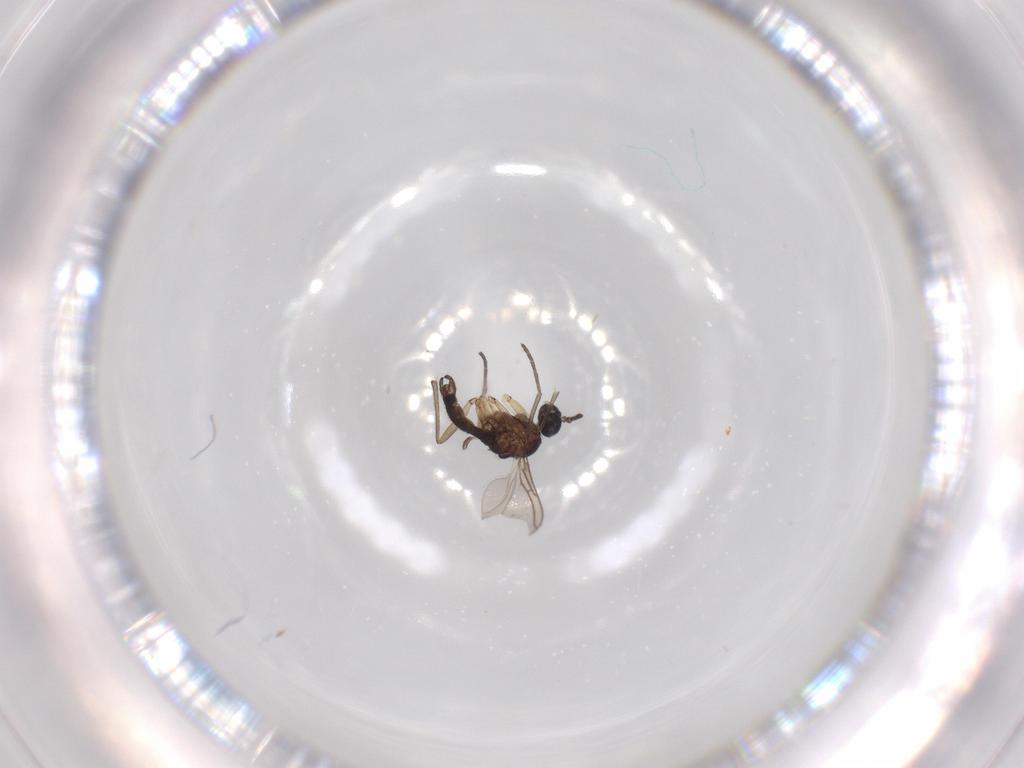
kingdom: Animalia
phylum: Arthropoda
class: Insecta
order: Diptera
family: Sciaridae
